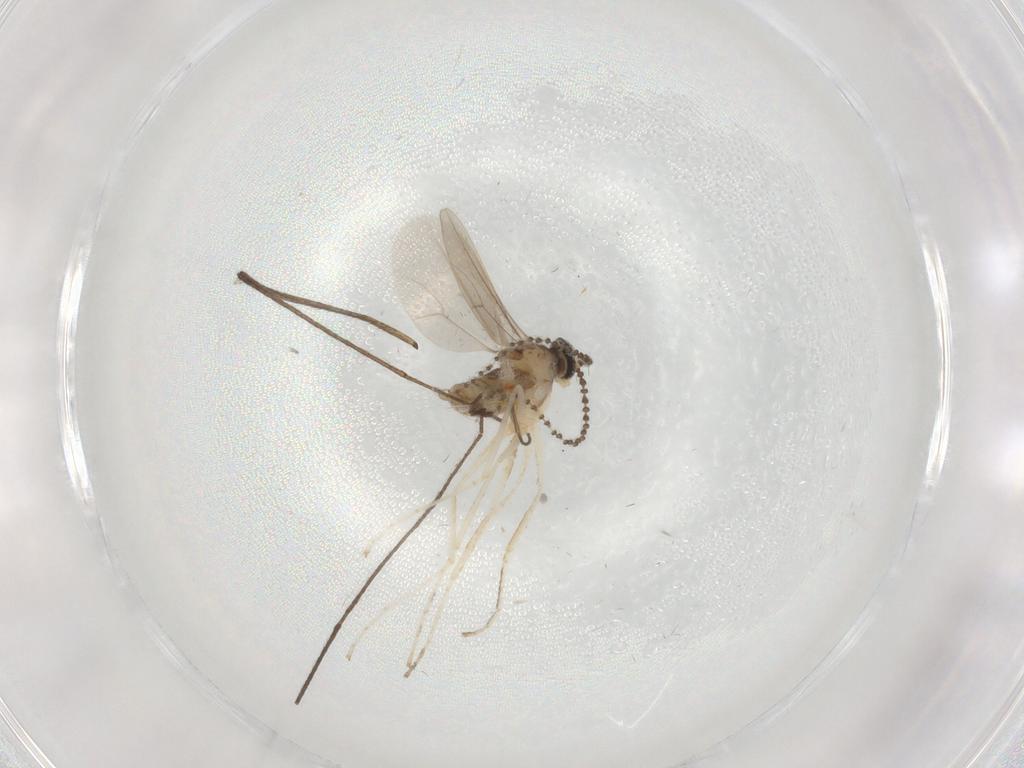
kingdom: Animalia
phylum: Arthropoda
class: Insecta
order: Diptera
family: Cecidomyiidae
